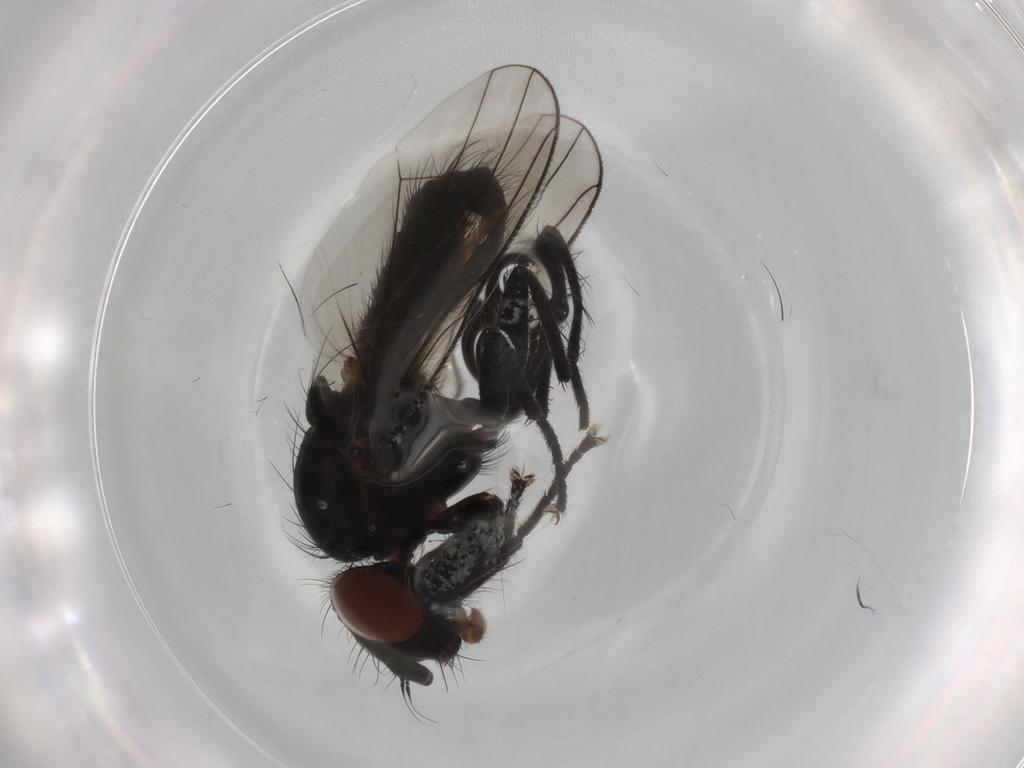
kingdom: Animalia
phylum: Arthropoda
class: Insecta
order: Diptera
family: Anthomyiidae
